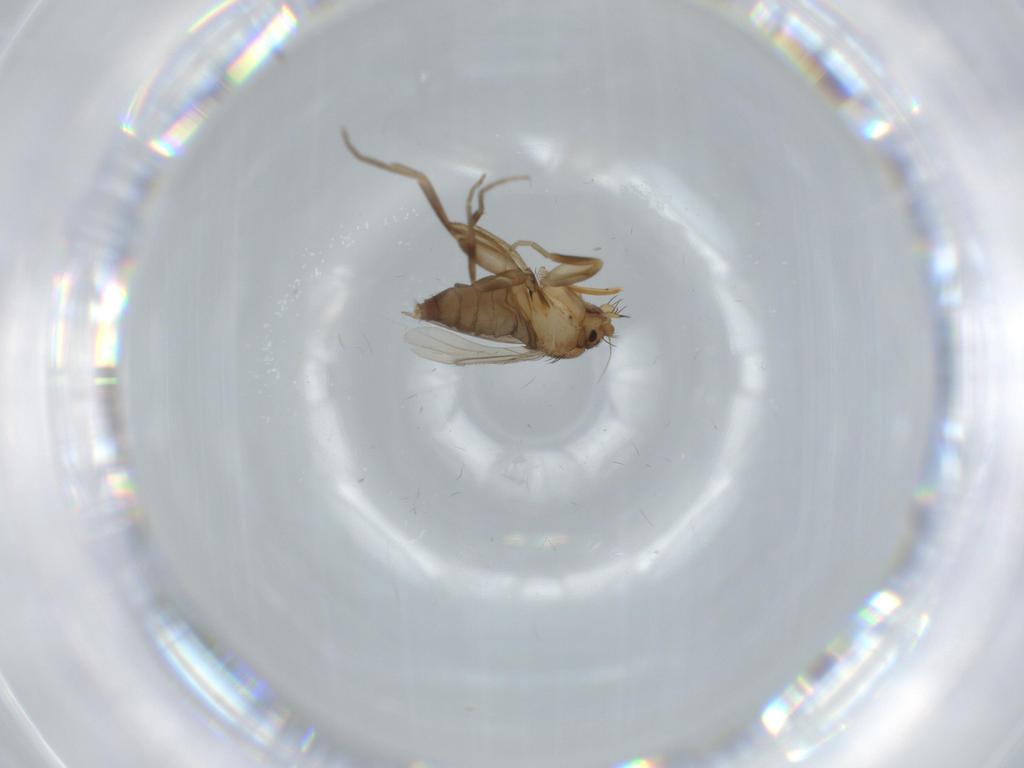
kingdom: Animalia
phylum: Arthropoda
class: Insecta
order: Diptera
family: Phoridae
